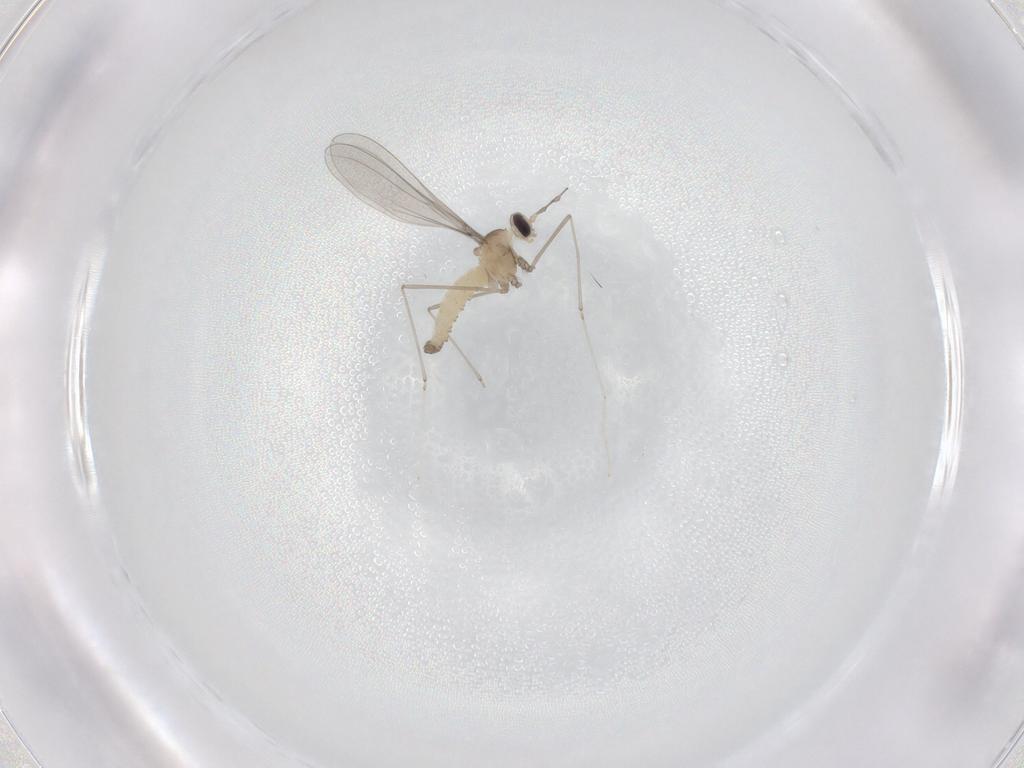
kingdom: Animalia
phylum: Arthropoda
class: Insecta
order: Diptera
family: Cecidomyiidae
